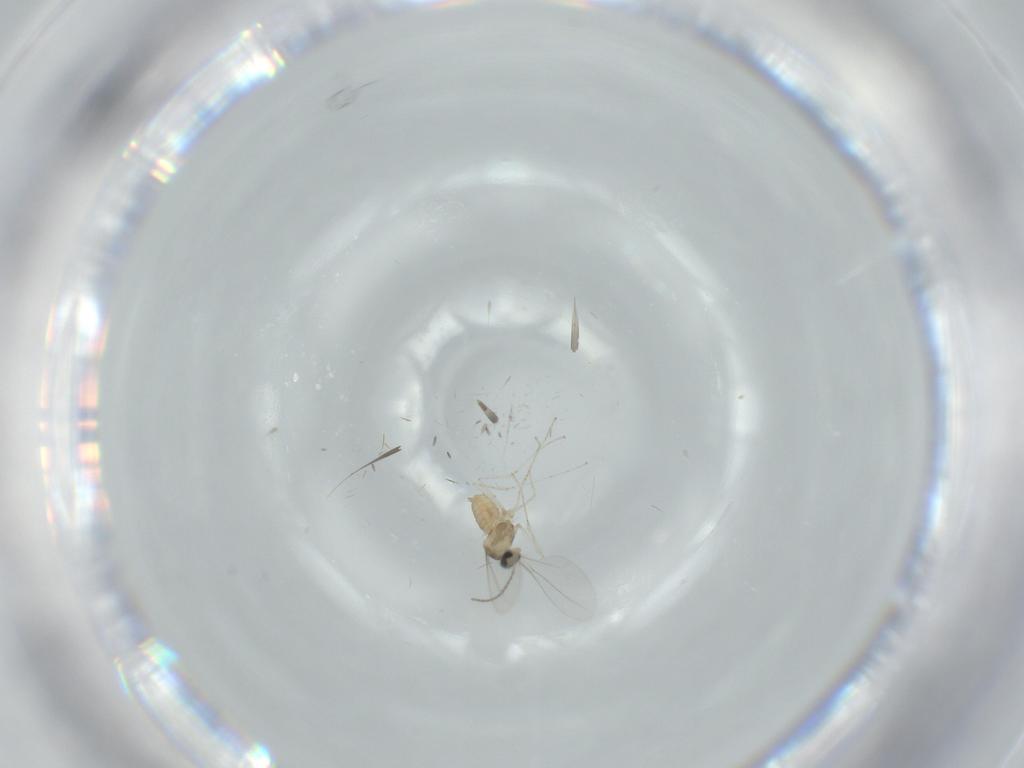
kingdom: Animalia
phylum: Arthropoda
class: Insecta
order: Diptera
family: Cecidomyiidae
